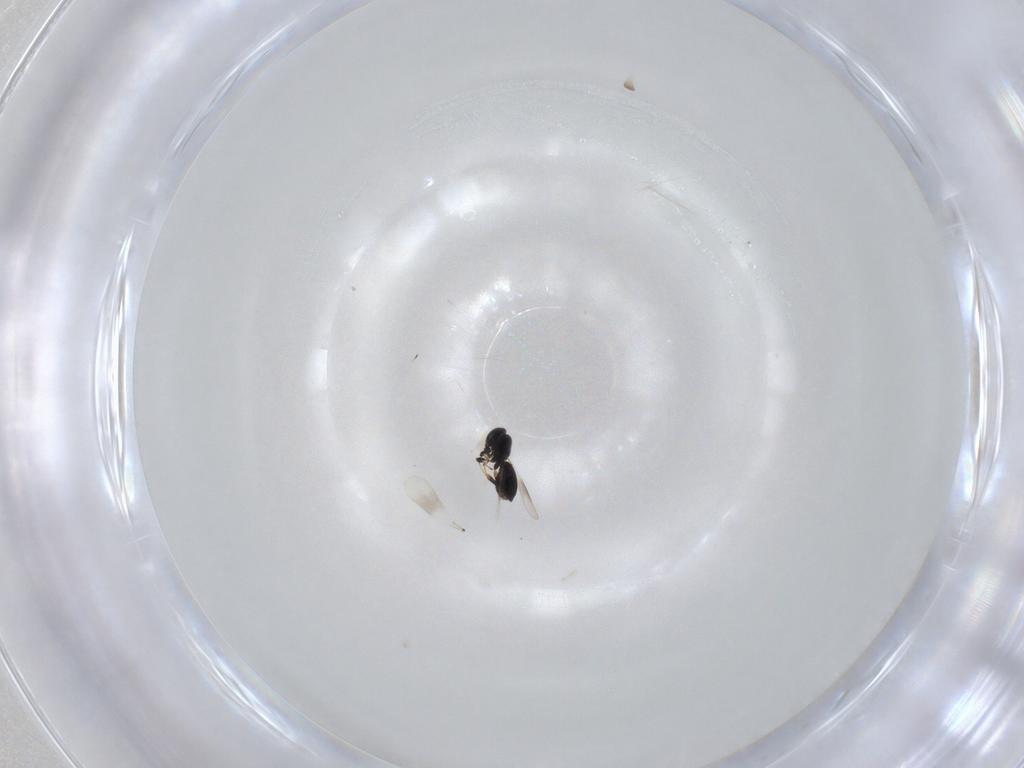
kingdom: Animalia
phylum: Arthropoda
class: Insecta
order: Hymenoptera
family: Platygastridae
